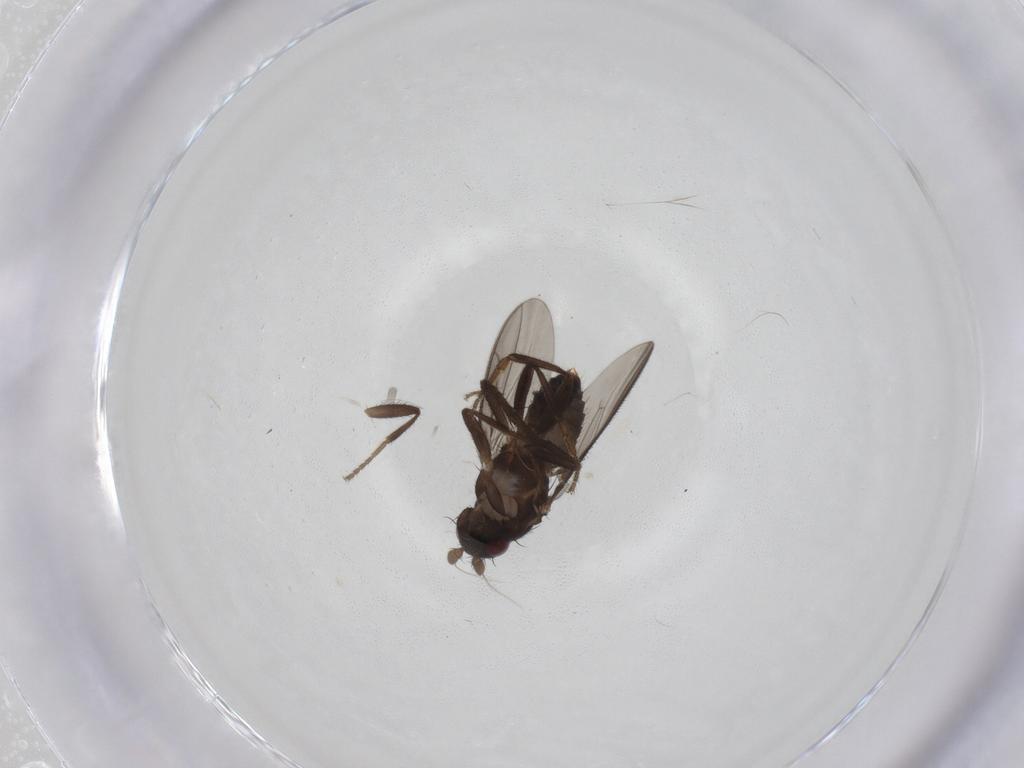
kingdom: Animalia
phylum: Arthropoda
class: Insecta
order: Diptera
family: Sphaeroceridae
